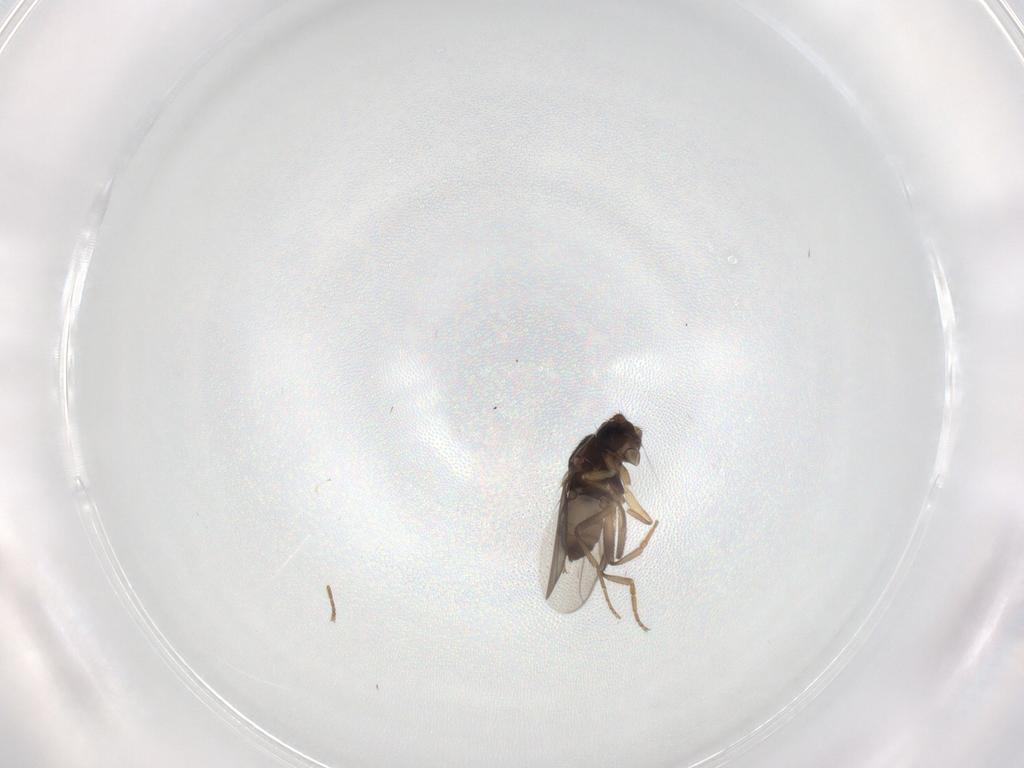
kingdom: Animalia
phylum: Arthropoda
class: Insecta
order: Diptera
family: Sphaeroceridae
